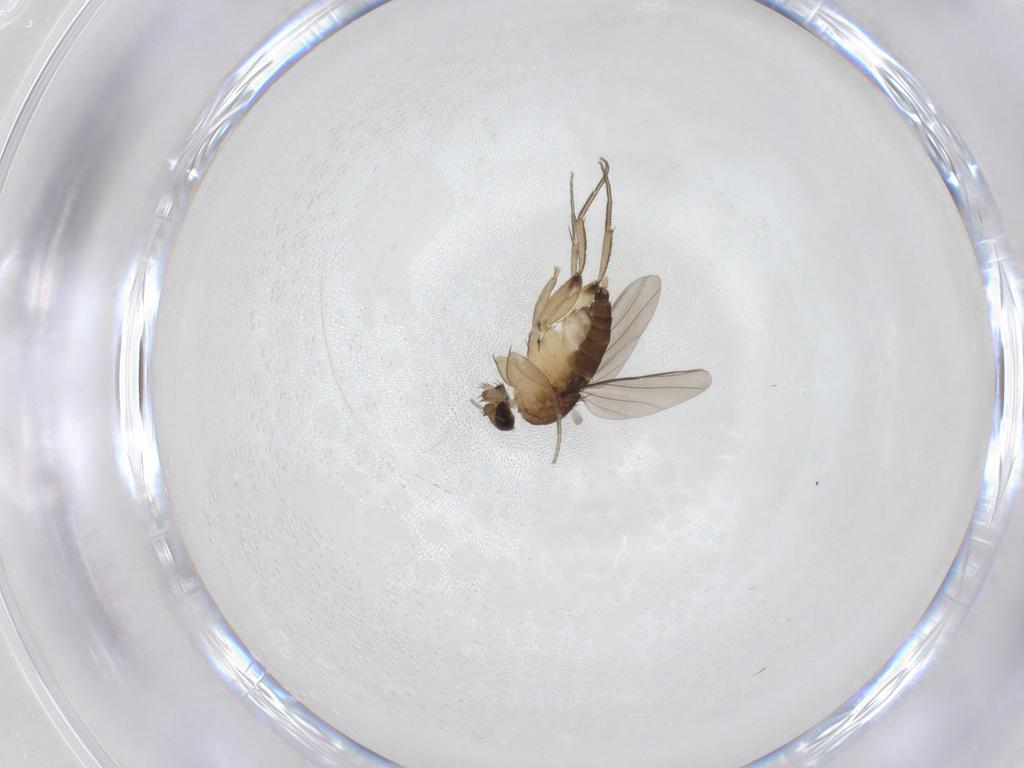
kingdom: Animalia
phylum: Arthropoda
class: Insecta
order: Diptera
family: Phoridae
